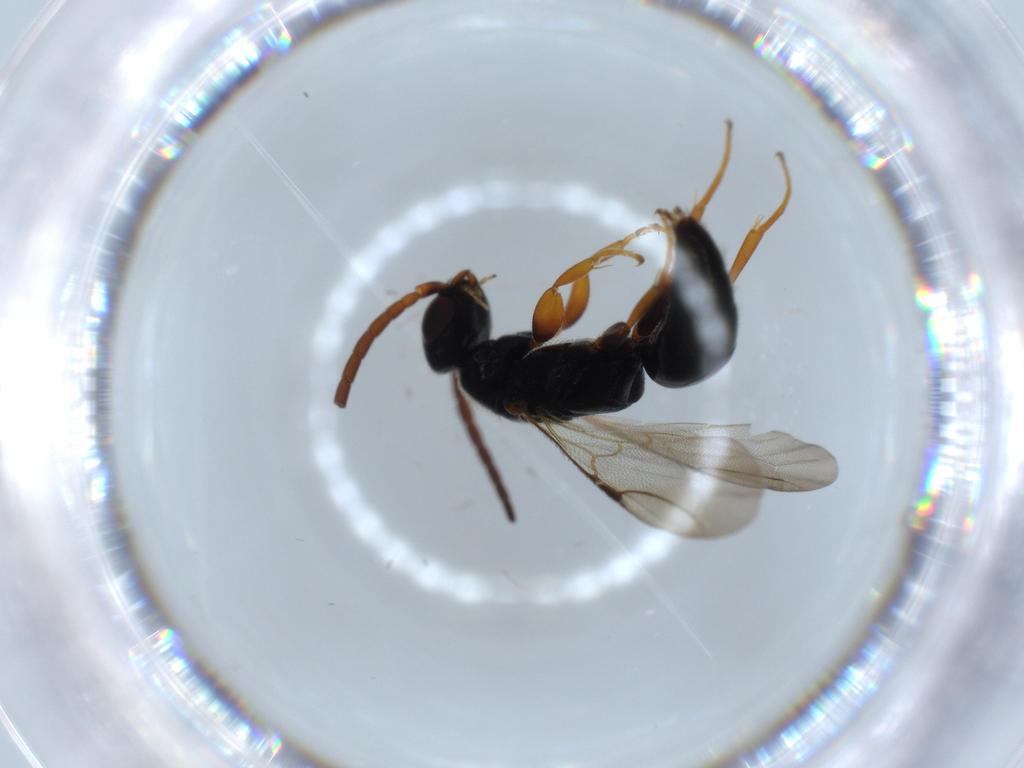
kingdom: Animalia
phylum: Arthropoda
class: Insecta
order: Hymenoptera
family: Bethylidae
